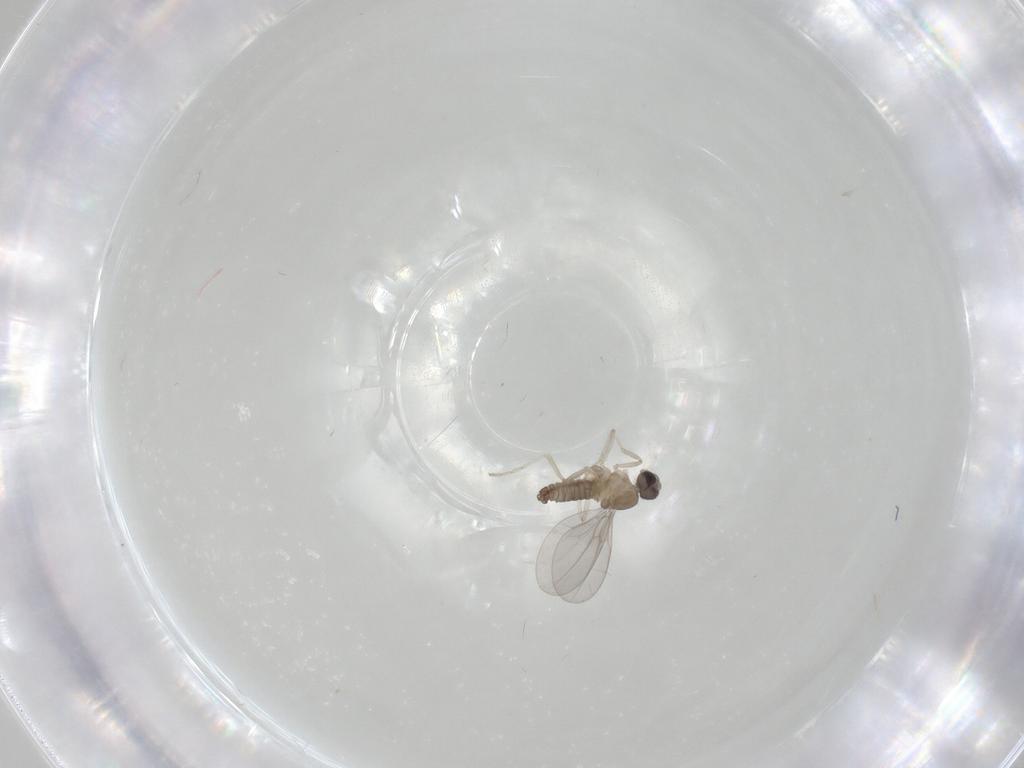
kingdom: Animalia
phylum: Arthropoda
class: Insecta
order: Diptera
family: Cecidomyiidae
